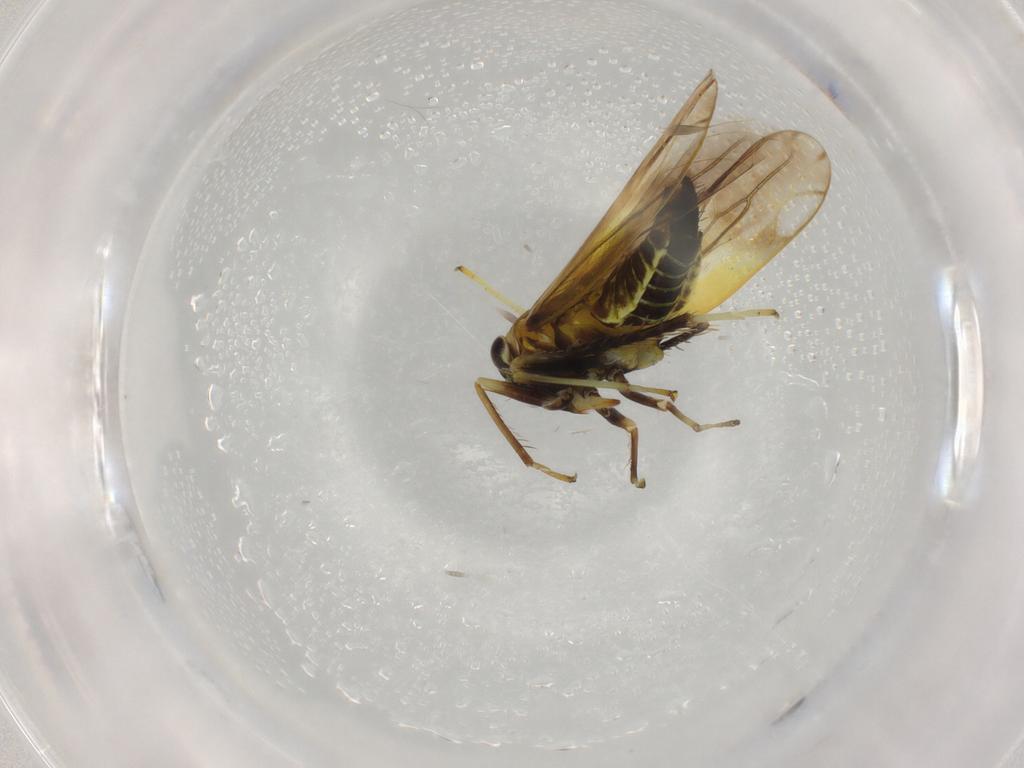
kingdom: Animalia
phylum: Arthropoda
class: Insecta
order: Hemiptera
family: Cicadellidae
